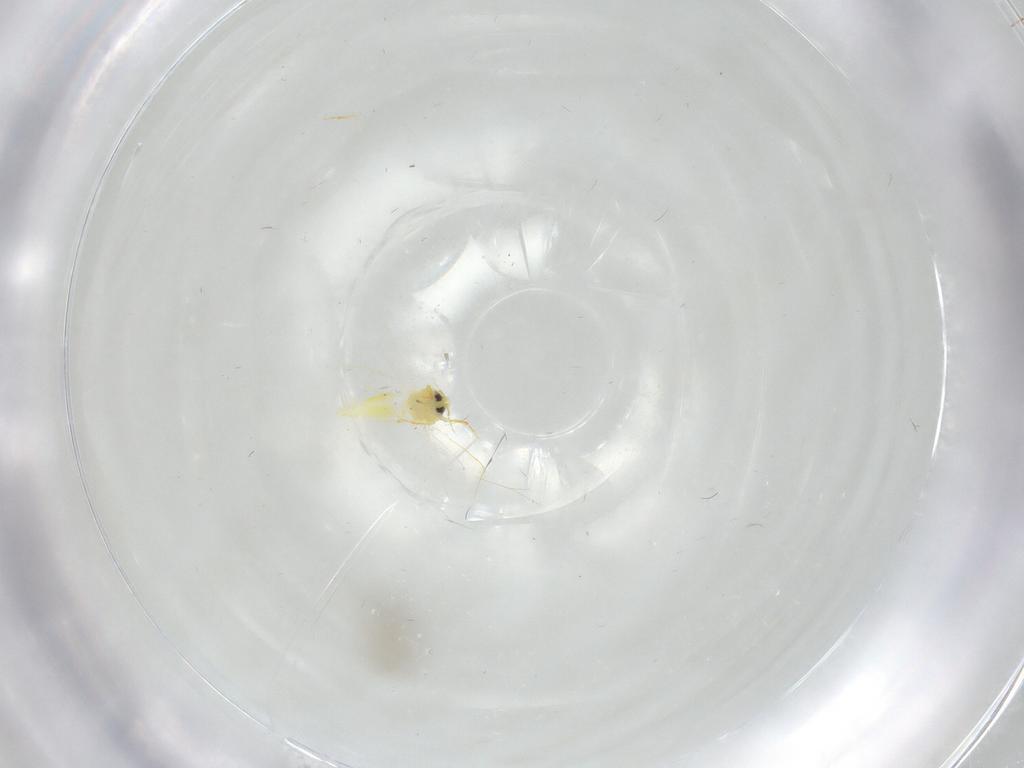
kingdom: Animalia
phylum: Arthropoda
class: Insecta
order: Hemiptera
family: Aleyrodidae
